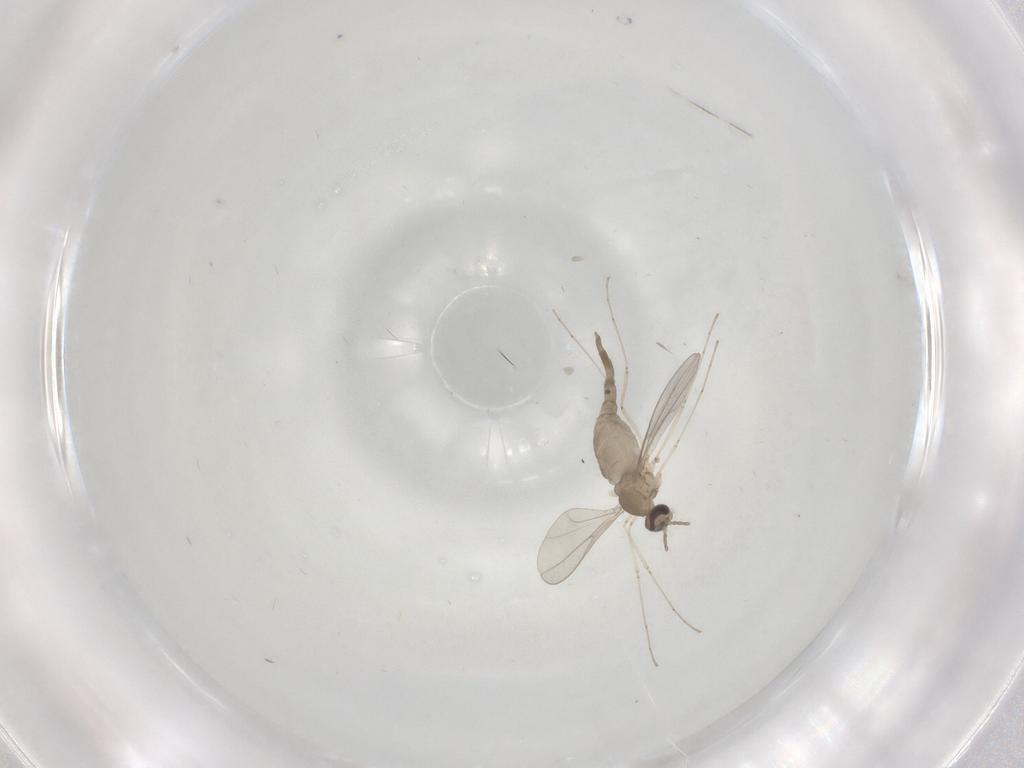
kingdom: Animalia
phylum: Arthropoda
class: Insecta
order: Diptera
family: Cecidomyiidae
